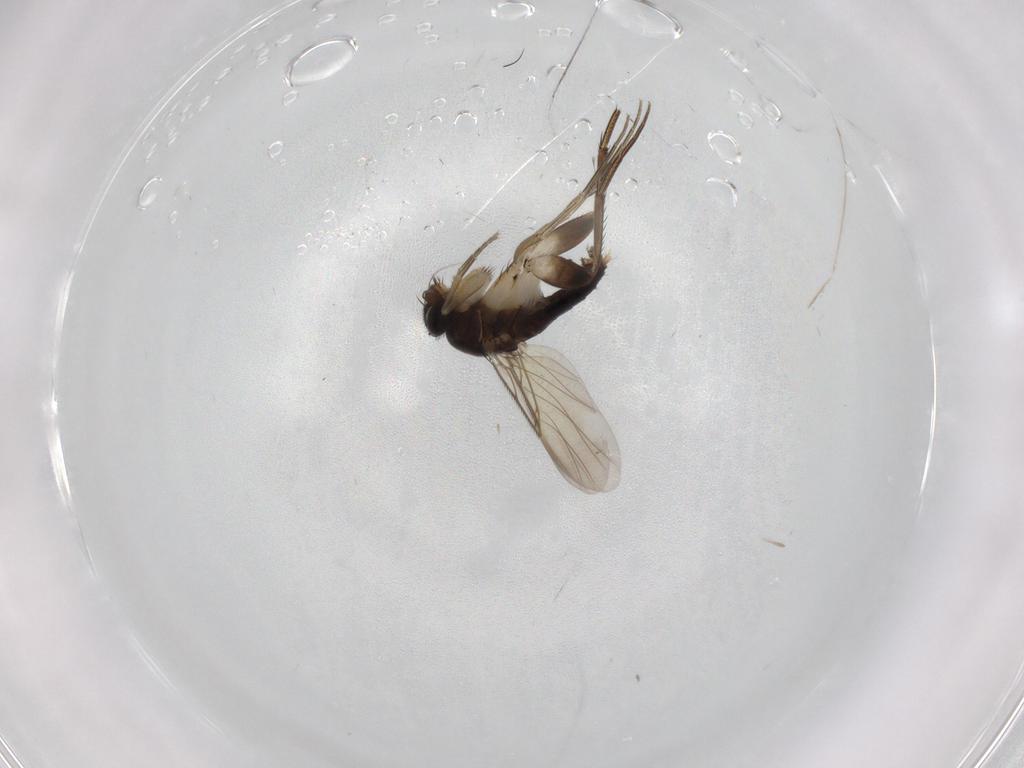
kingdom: Animalia
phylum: Arthropoda
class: Insecta
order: Diptera
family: Phoridae
